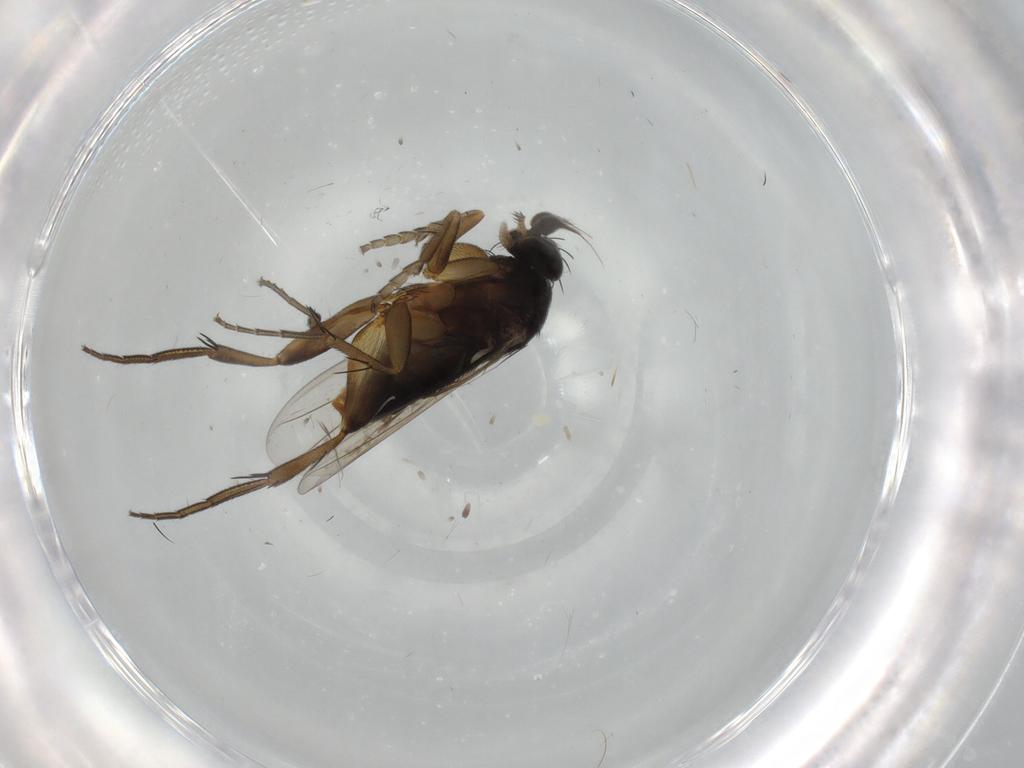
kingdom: Animalia
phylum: Arthropoda
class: Insecta
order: Diptera
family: Phoridae
